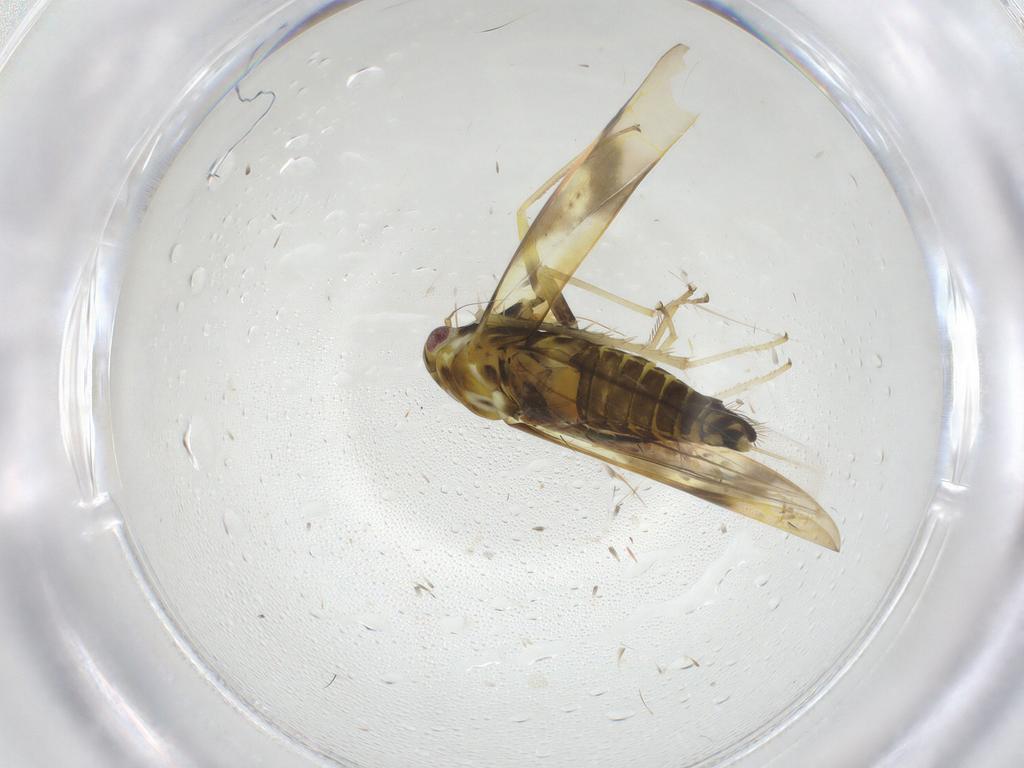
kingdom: Animalia
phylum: Arthropoda
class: Insecta
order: Hemiptera
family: Cicadellidae
